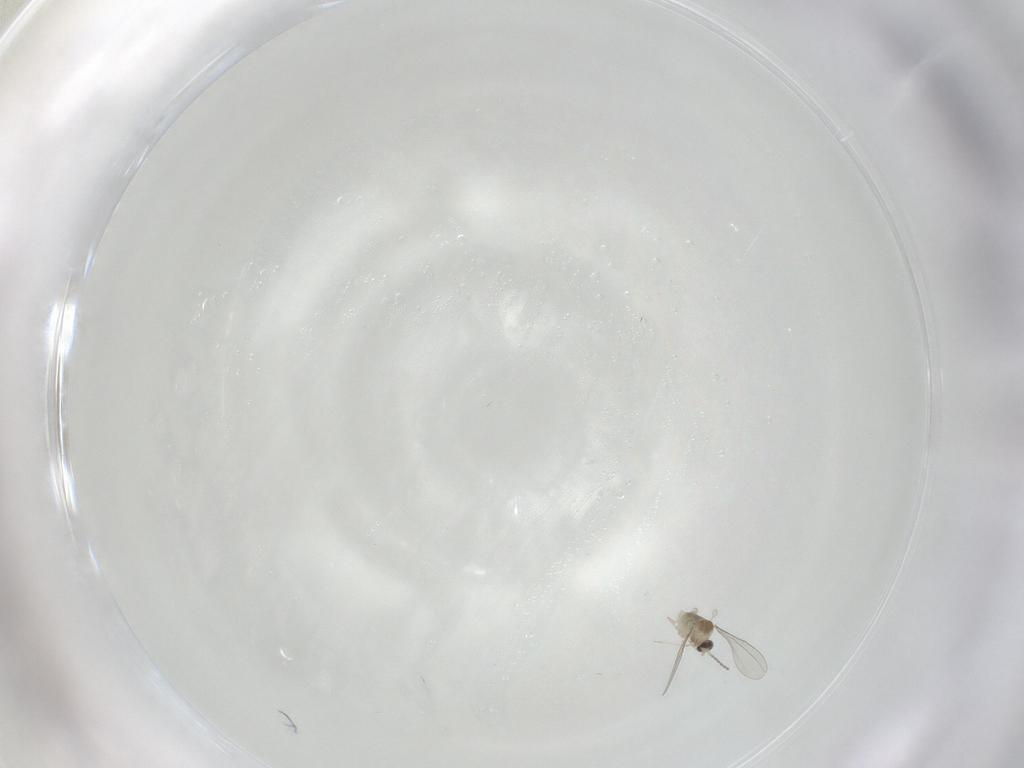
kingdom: Animalia
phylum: Arthropoda
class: Insecta
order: Diptera
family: Cecidomyiidae
